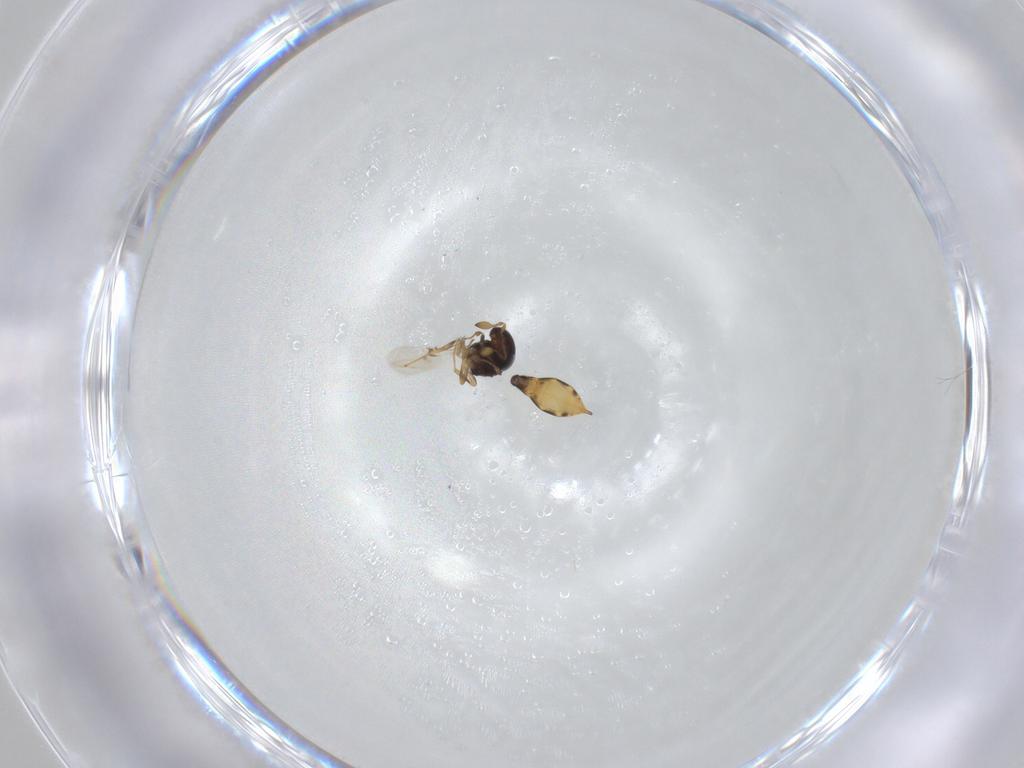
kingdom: Animalia
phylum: Arthropoda
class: Insecta
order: Hymenoptera
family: Scelionidae
